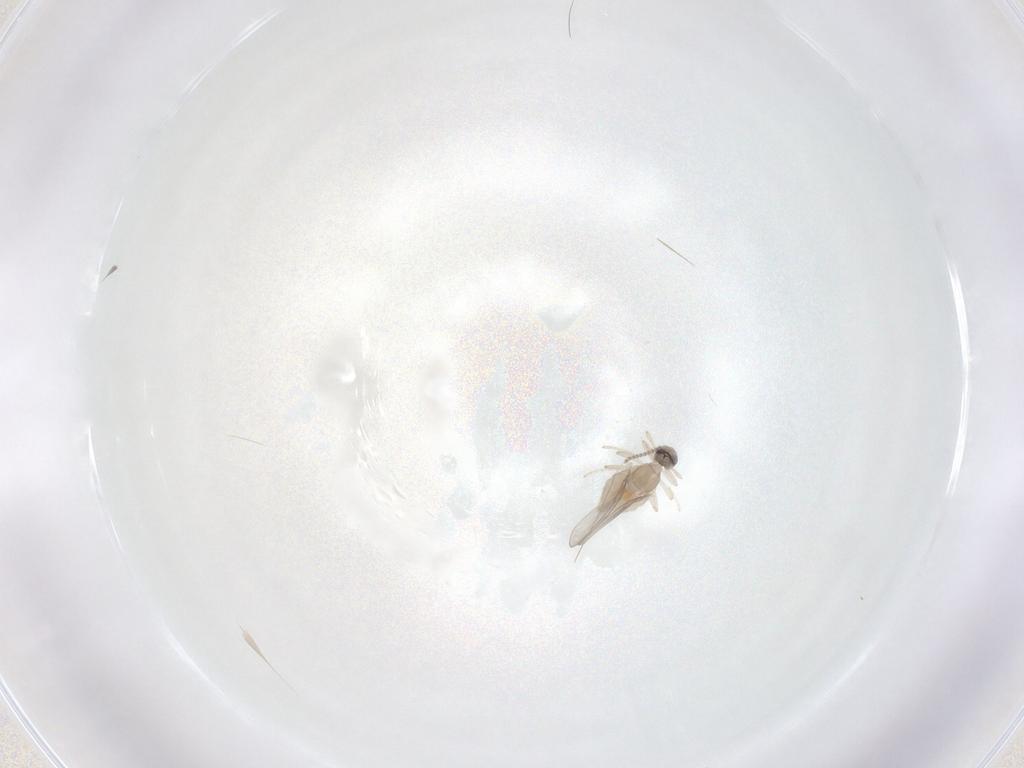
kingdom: Animalia
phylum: Arthropoda
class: Insecta
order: Diptera
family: Cecidomyiidae
